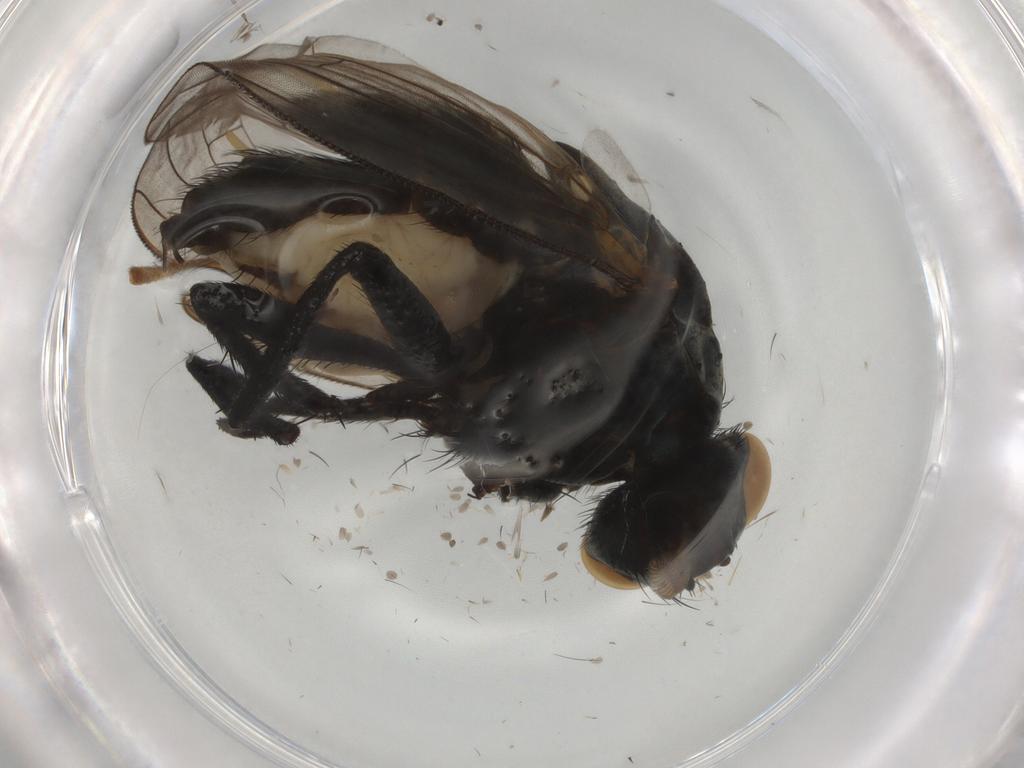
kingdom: Animalia
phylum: Arthropoda
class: Insecta
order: Diptera
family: Anthomyiidae
